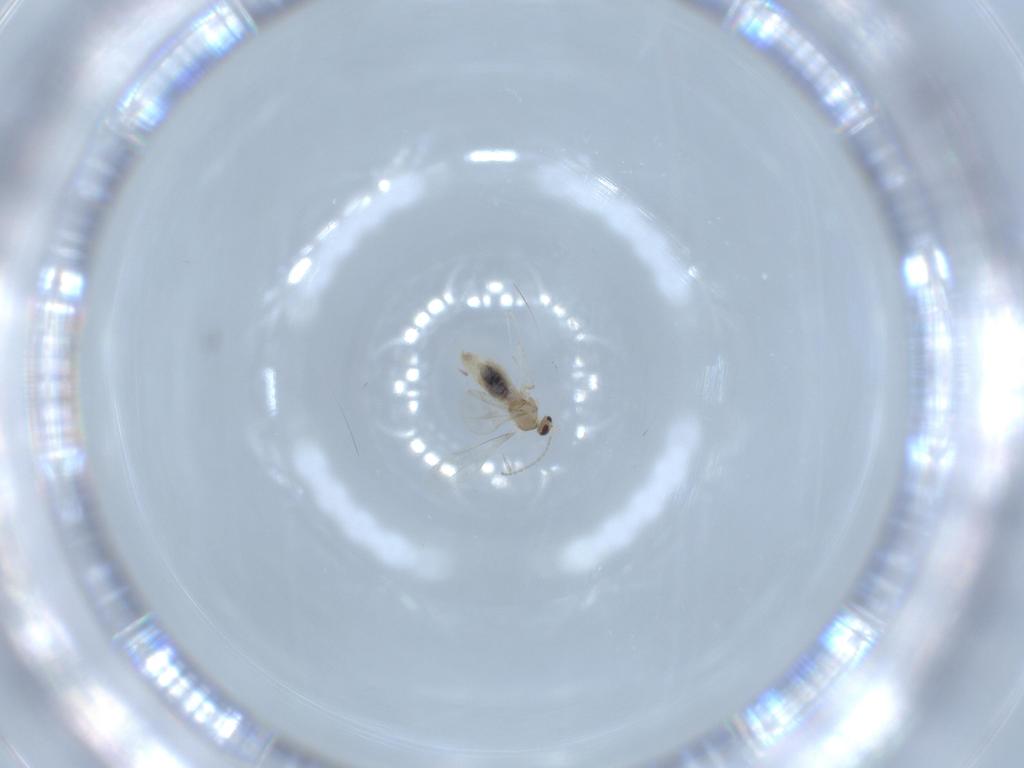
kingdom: Animalia
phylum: Arthropoda
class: Insecta
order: Diptera
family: Cecidomyiidae
